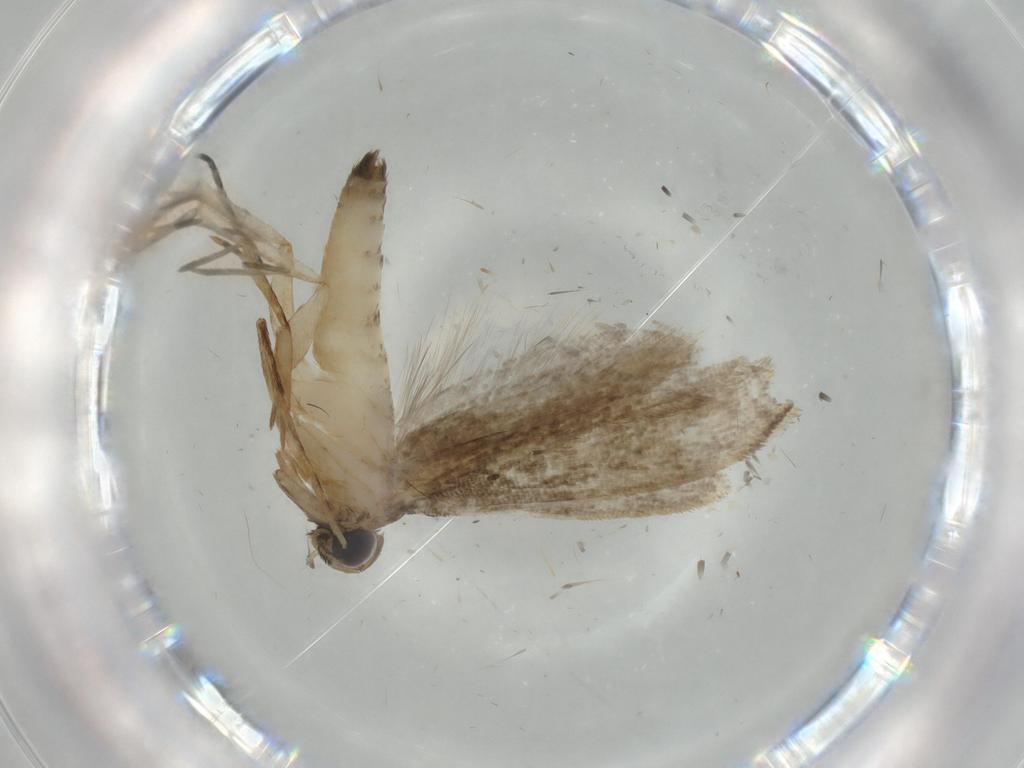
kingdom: Animalia
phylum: Arthropoda
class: Insecta
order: Lepidoptera
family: Tineidae
